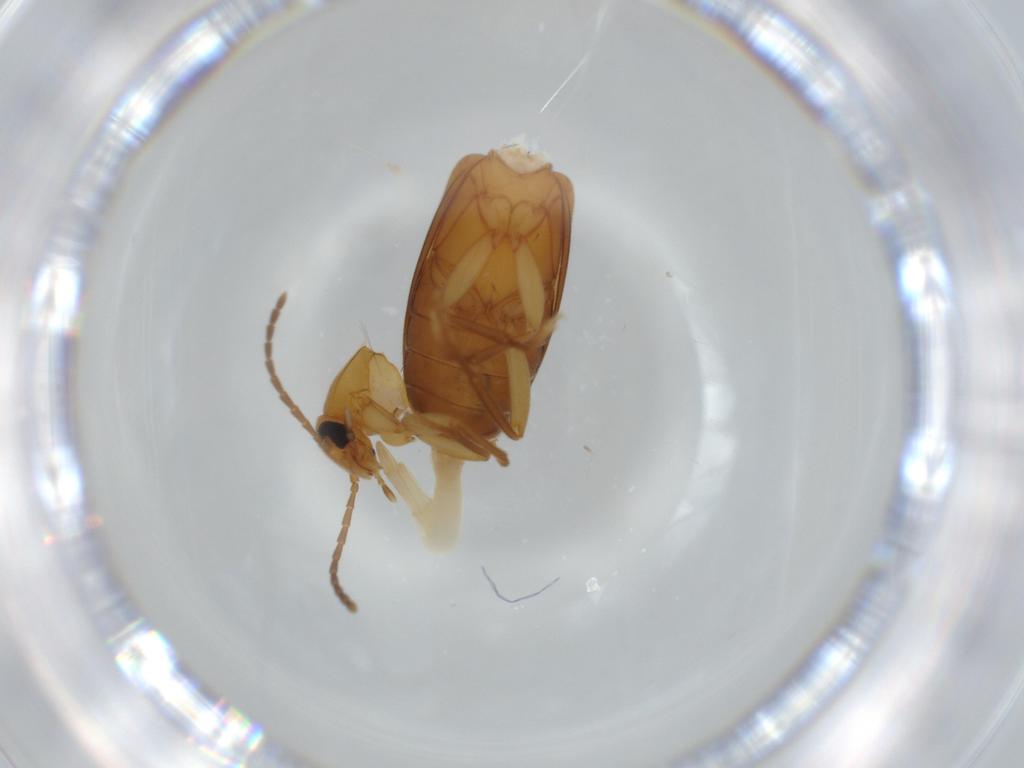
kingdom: Animalia
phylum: Arthropoda
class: Insecta
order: Coleoptera
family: Scraptiidae
